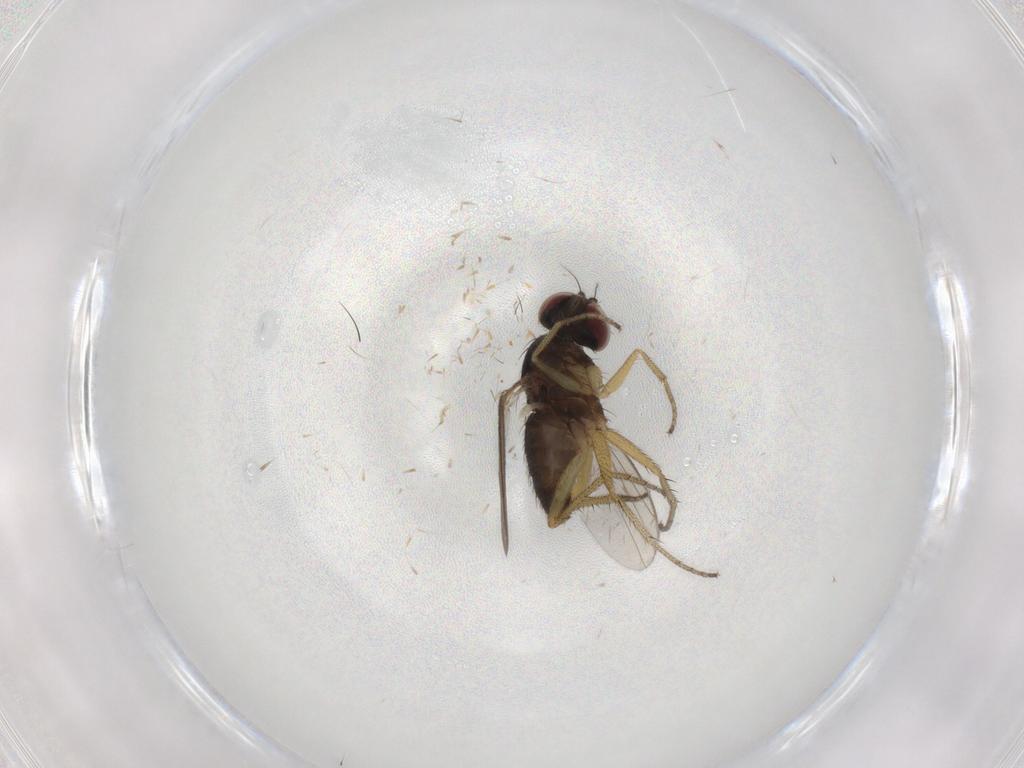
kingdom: Animalia
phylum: Arthropoda
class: Insecta
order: Diptera
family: Dolichopodidae
